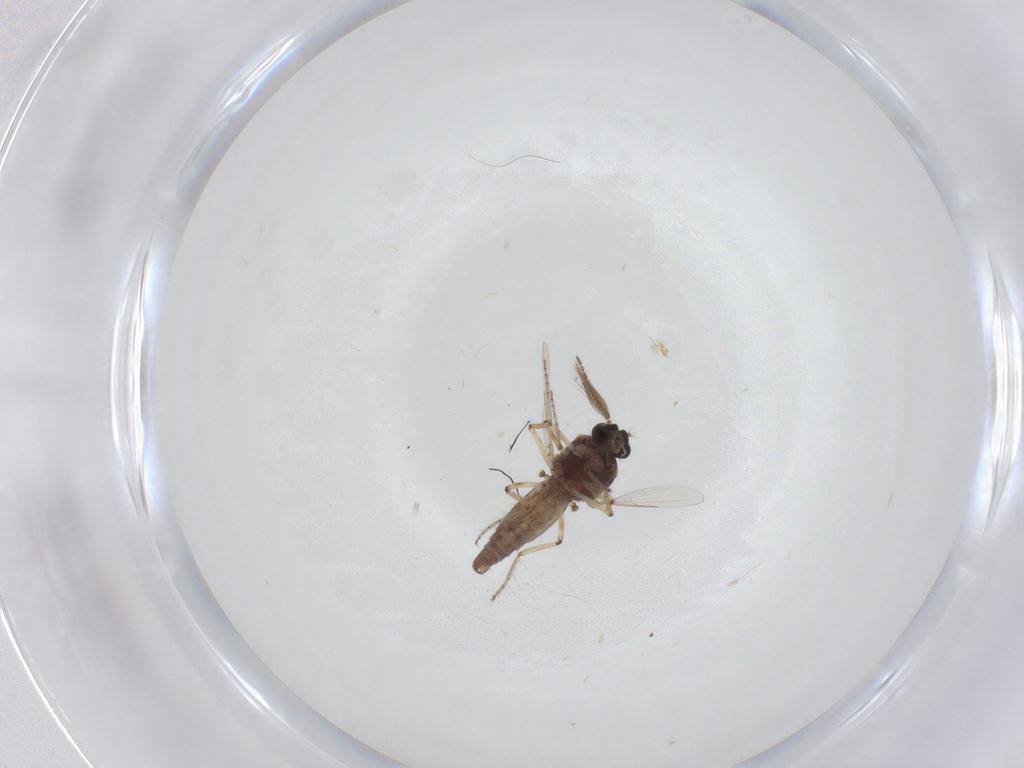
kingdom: Animalia
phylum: Arthropoda
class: Insecta
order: Diptera
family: Ceratopogonidae
